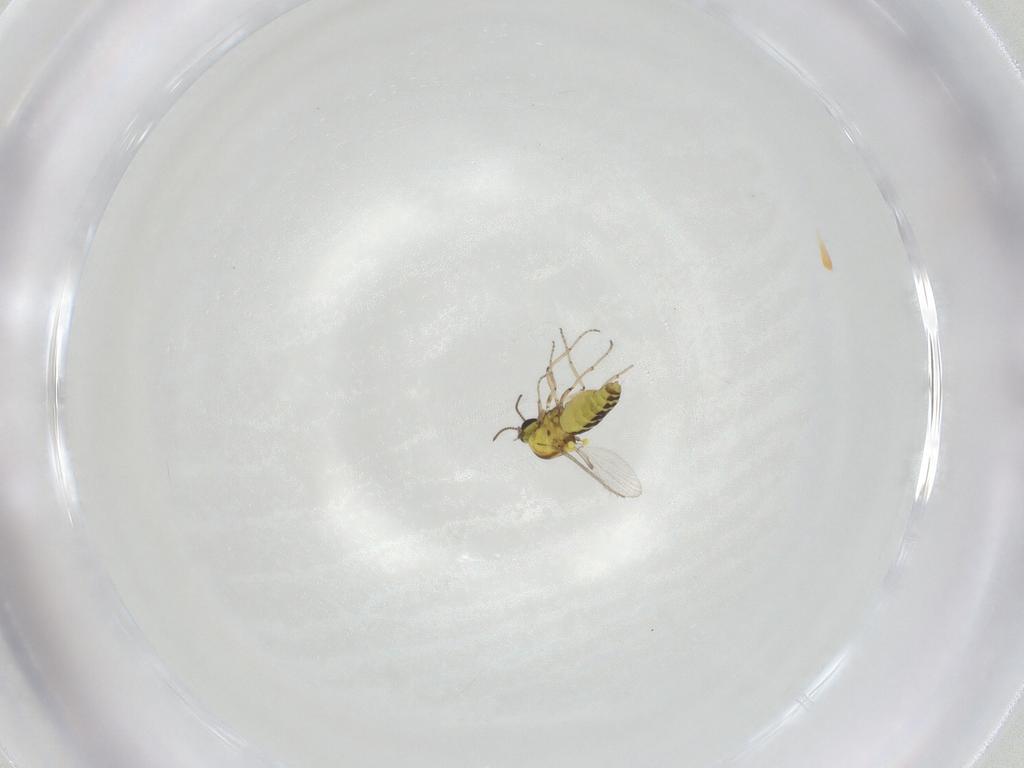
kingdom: Animalia
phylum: Arthropoda
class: Insecta
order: Diptera
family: Ceratopogonidae
